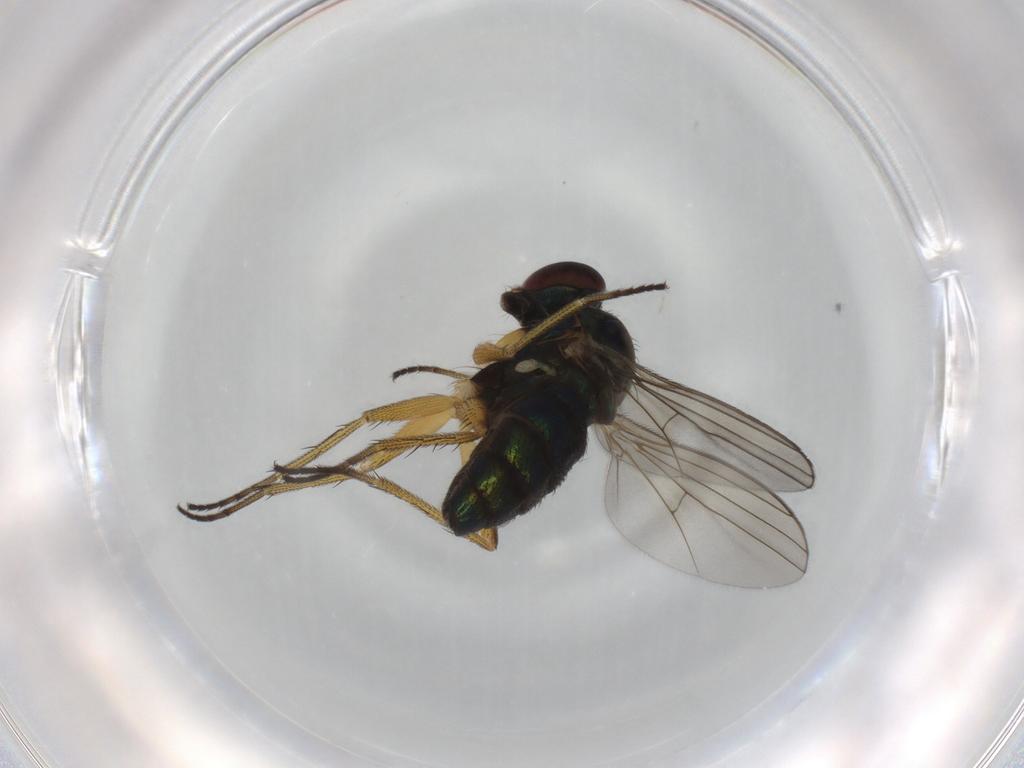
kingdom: Animalia
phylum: Arthropoda
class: Insecta
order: Diptera
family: Dolichopodidae
